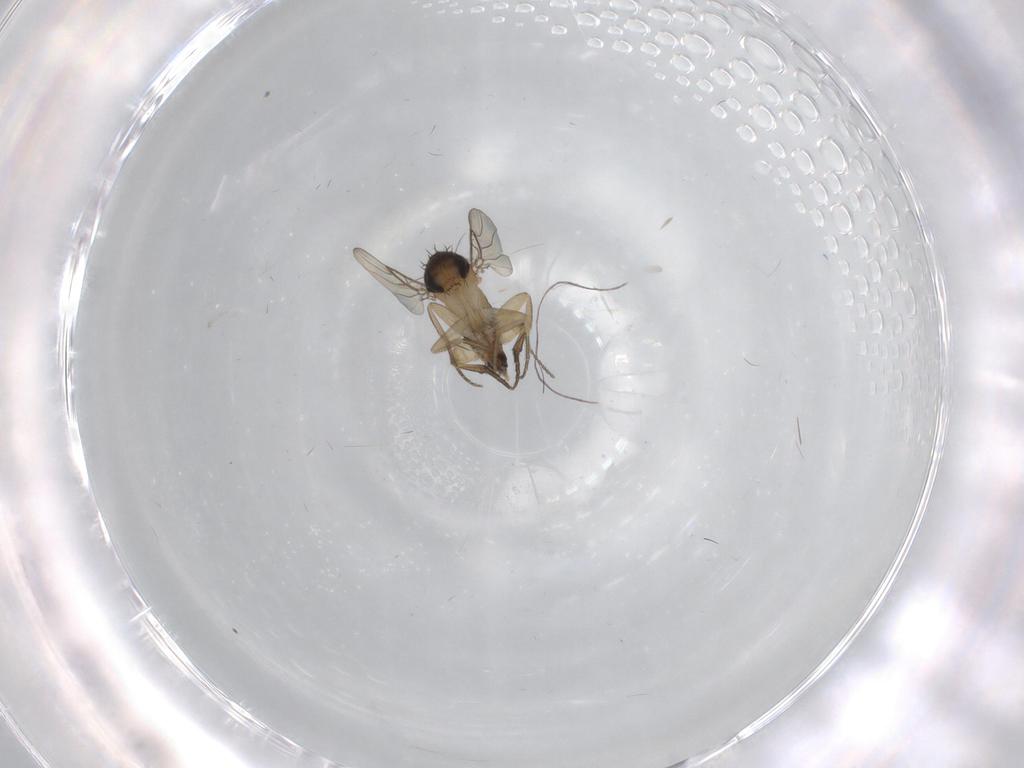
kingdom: Animalia
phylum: Arthropoda
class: Insecta
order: Diptera
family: Phoridae
